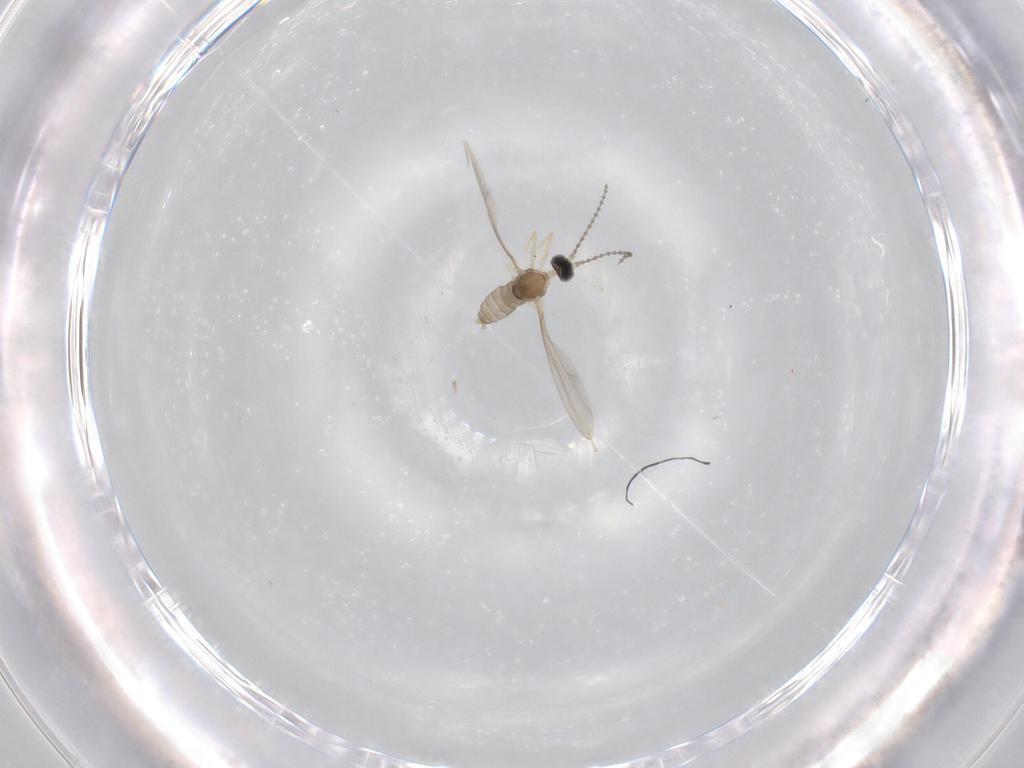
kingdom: Animalia
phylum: Arthropoda
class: Insecta
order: Diptera
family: Cecidomyiidae
